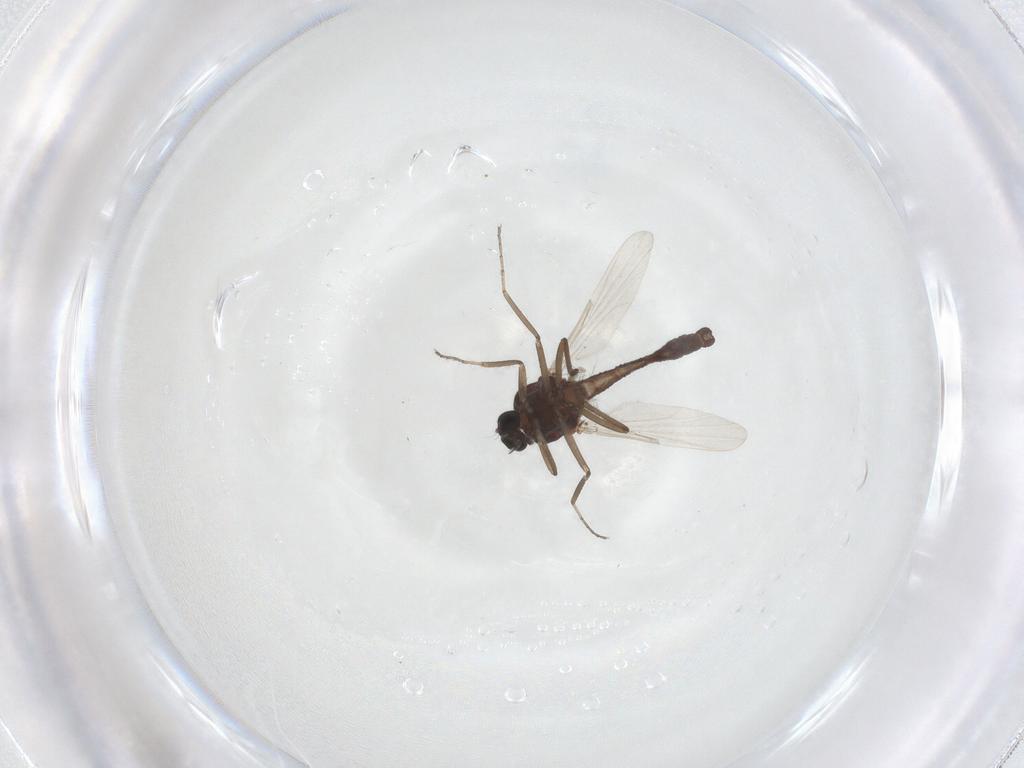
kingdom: Animalia
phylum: Arthropoda
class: Insecta
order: Diptera
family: Ceratopogonidae
